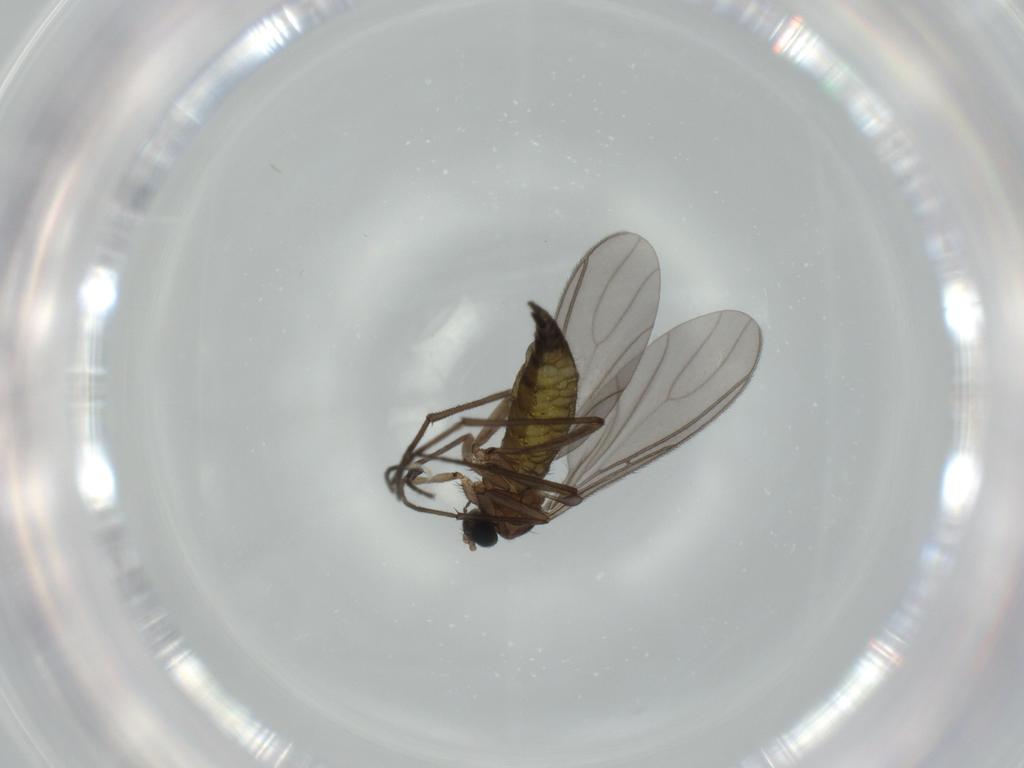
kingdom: Animalia
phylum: Arthropoda
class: Insecta
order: Diptera
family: Sciaridae
